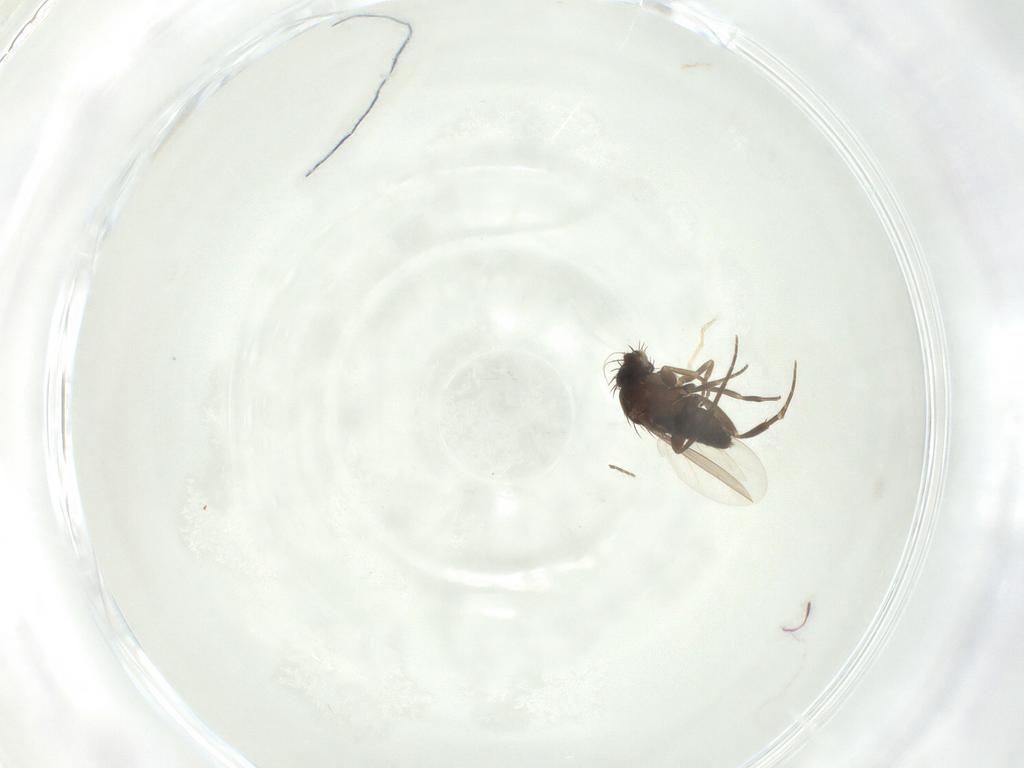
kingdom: Animalia
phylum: Arthropoda
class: Insecta
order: Diptera
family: Phoridae
